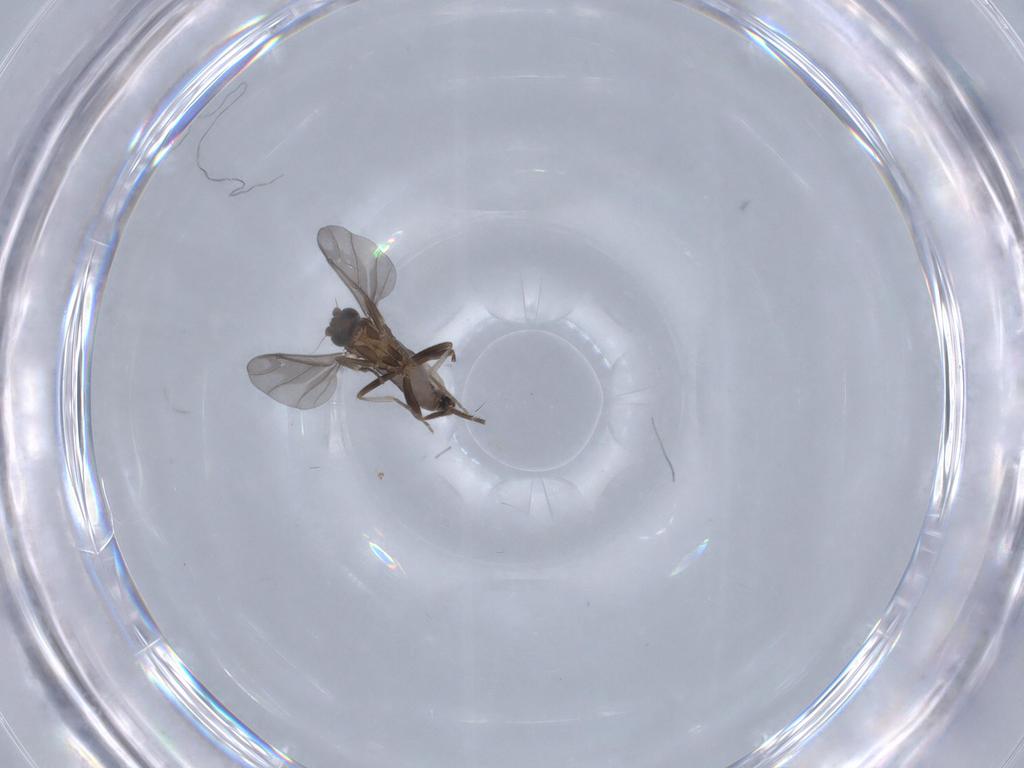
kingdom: Animalia
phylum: Arthropoda
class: Insecta
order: Diptera
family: Phoridae
